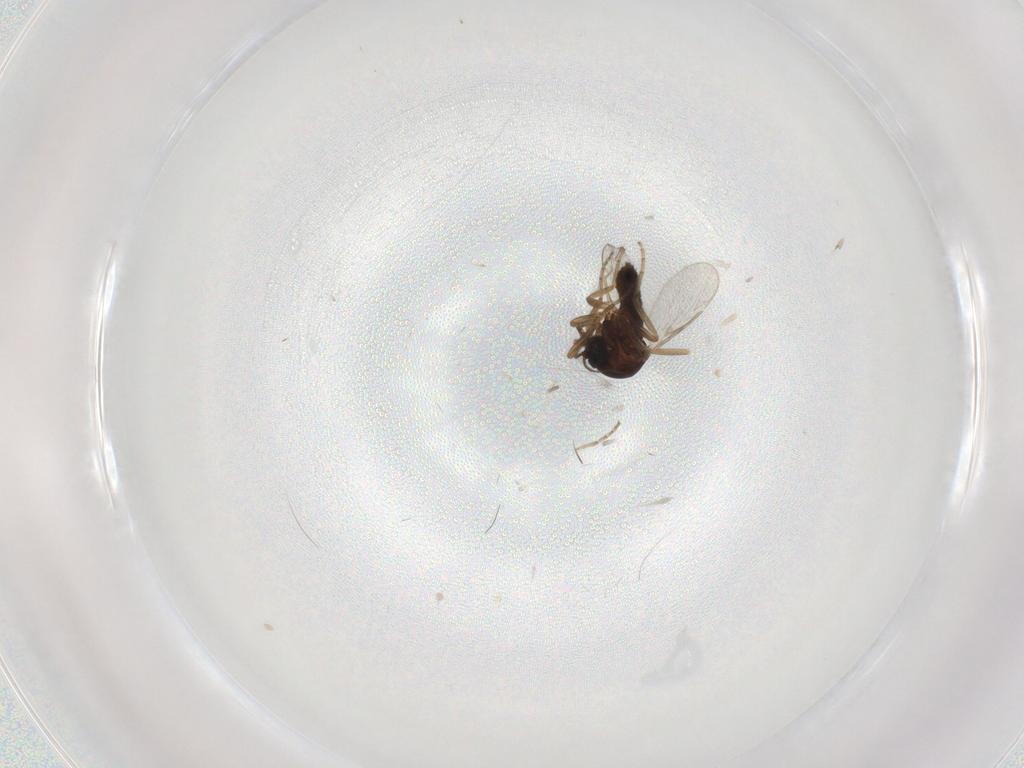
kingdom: Animalia
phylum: Arthropoda
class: Insecta
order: Diptera
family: Ceratopogonidae
